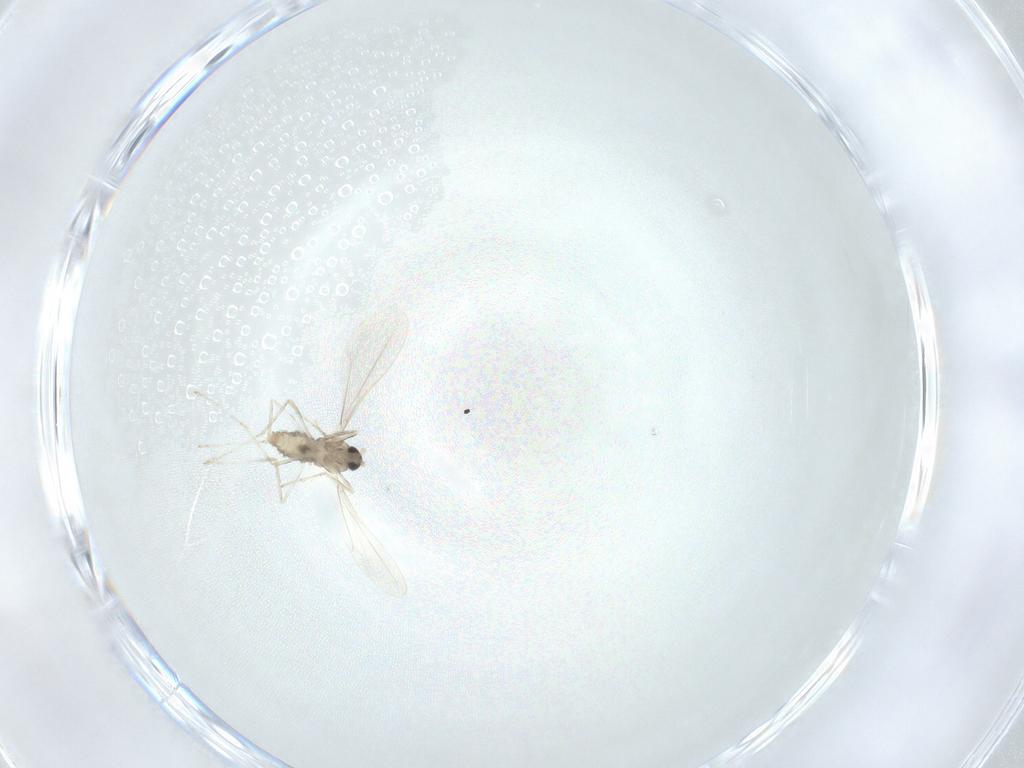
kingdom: Animalia
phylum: Arthropoda
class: Insecta
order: Diptera
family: Cecidomyiidae
